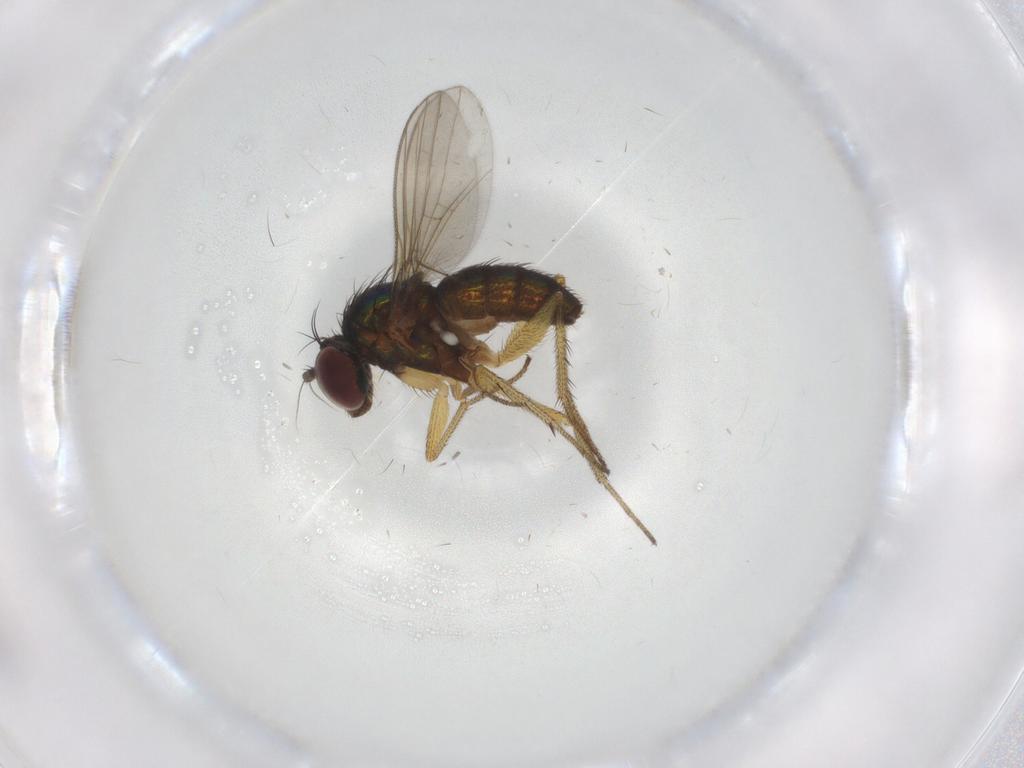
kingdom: Animalia
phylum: Arthropoda
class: Insecta
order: Diptera
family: Dolichopodidae
